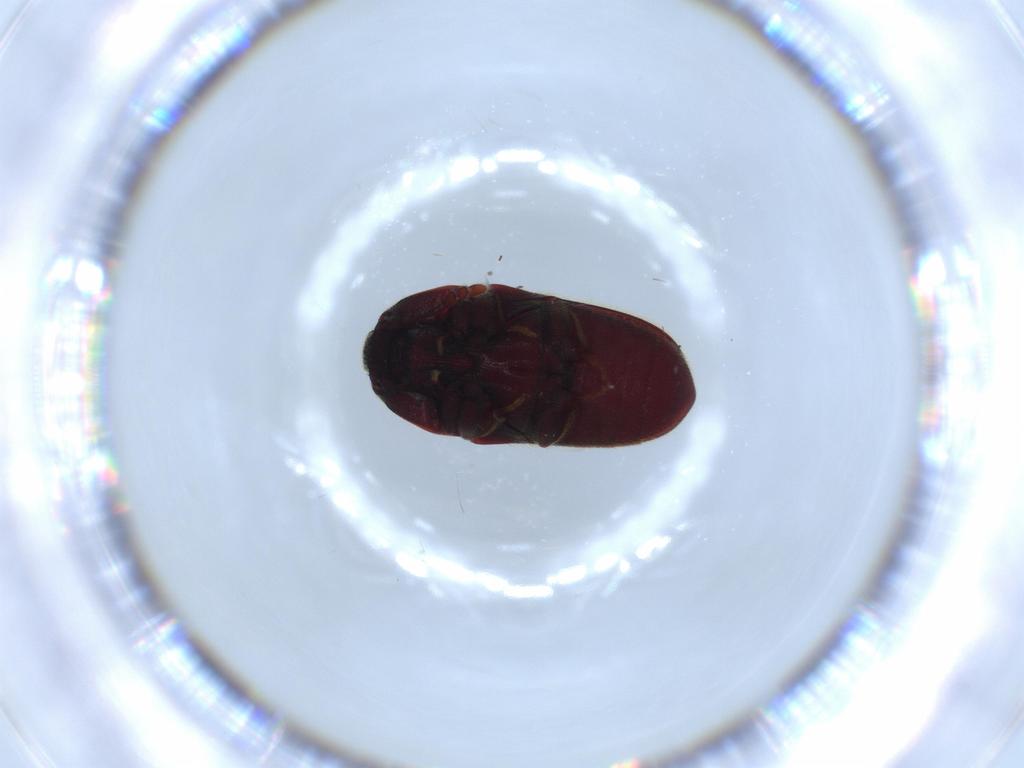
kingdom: Animalia
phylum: Arthropoda
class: Insecta
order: Coleoptera
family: Throscidae
